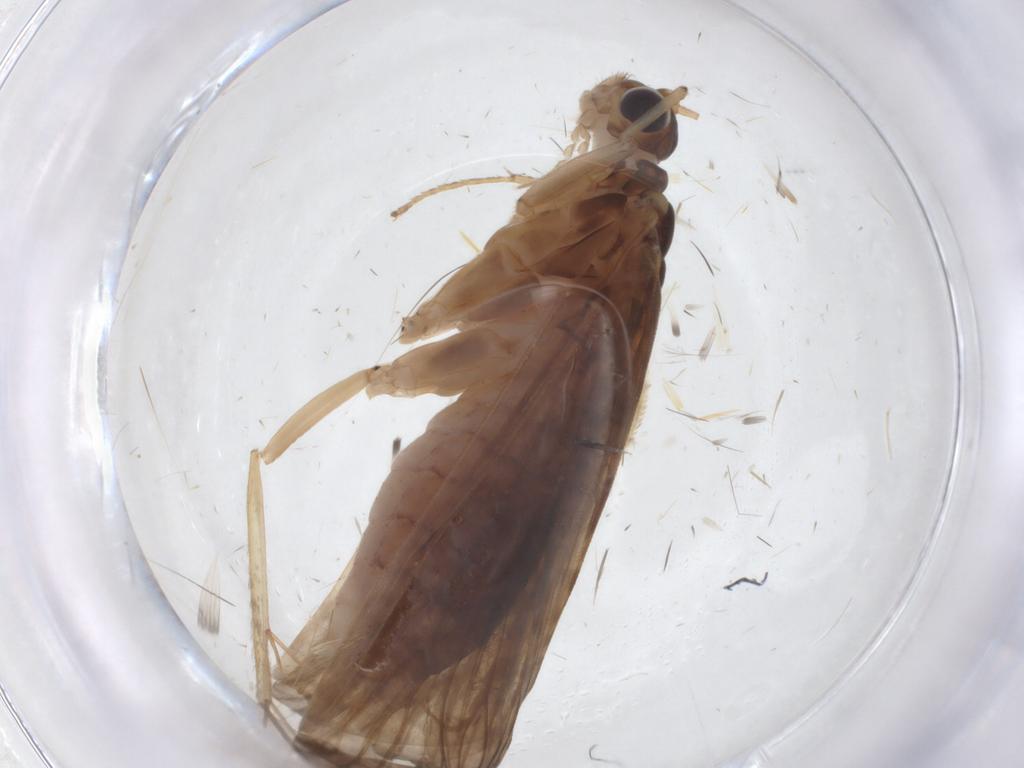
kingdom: Animalia
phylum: Arthropoda
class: Insecta
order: Trichoptera
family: Hydropsychidae
